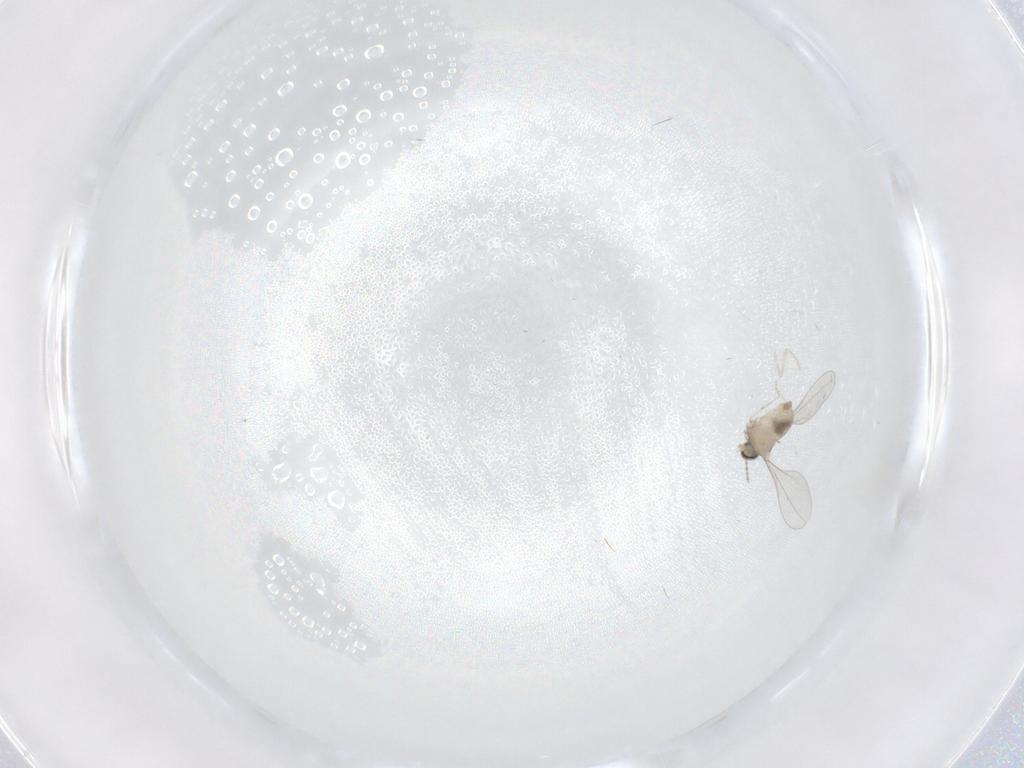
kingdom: Animalia
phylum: Arthropoda
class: Insecta
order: Diptera
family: Cecidomyiidae
